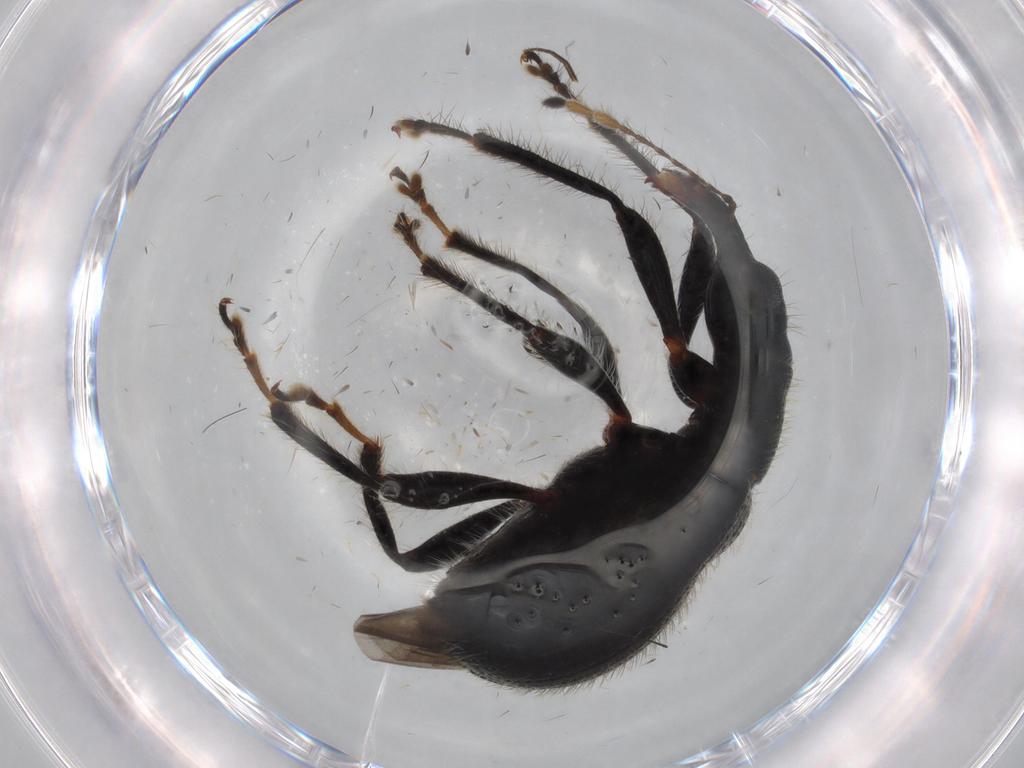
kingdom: Animalia
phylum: Arthropoda
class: Insecta
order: Coleoptera
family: Attelabidae
